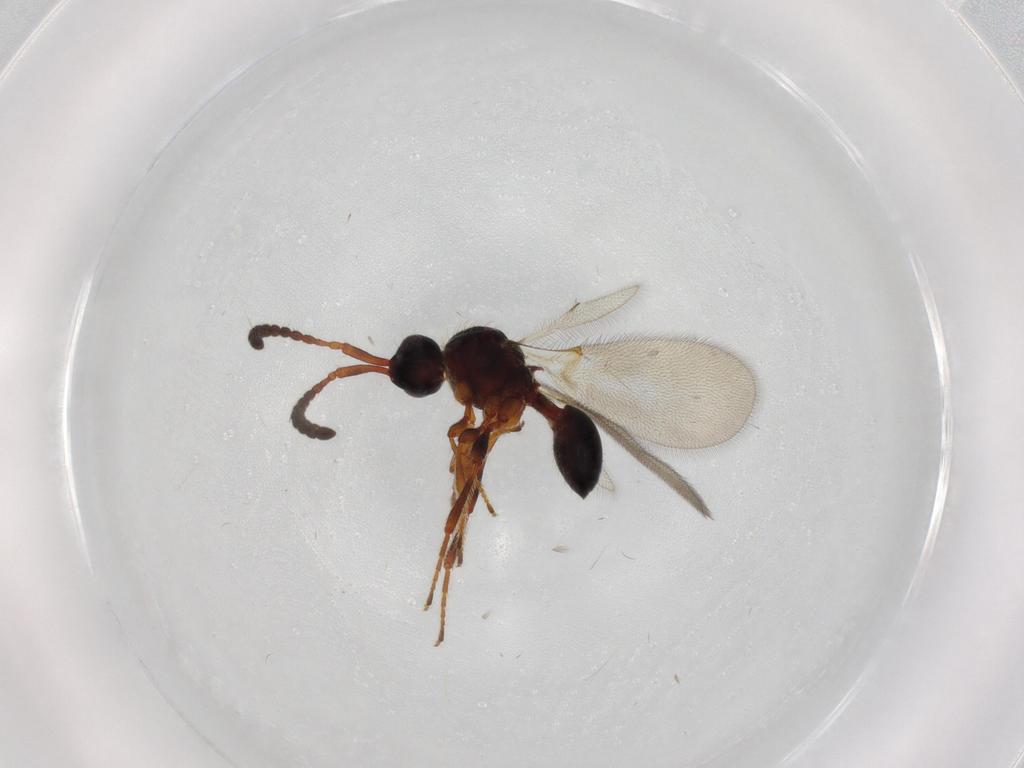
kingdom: Animalia
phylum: Arthropoda
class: Insecta
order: Hymenoptera
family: Diapriidae
